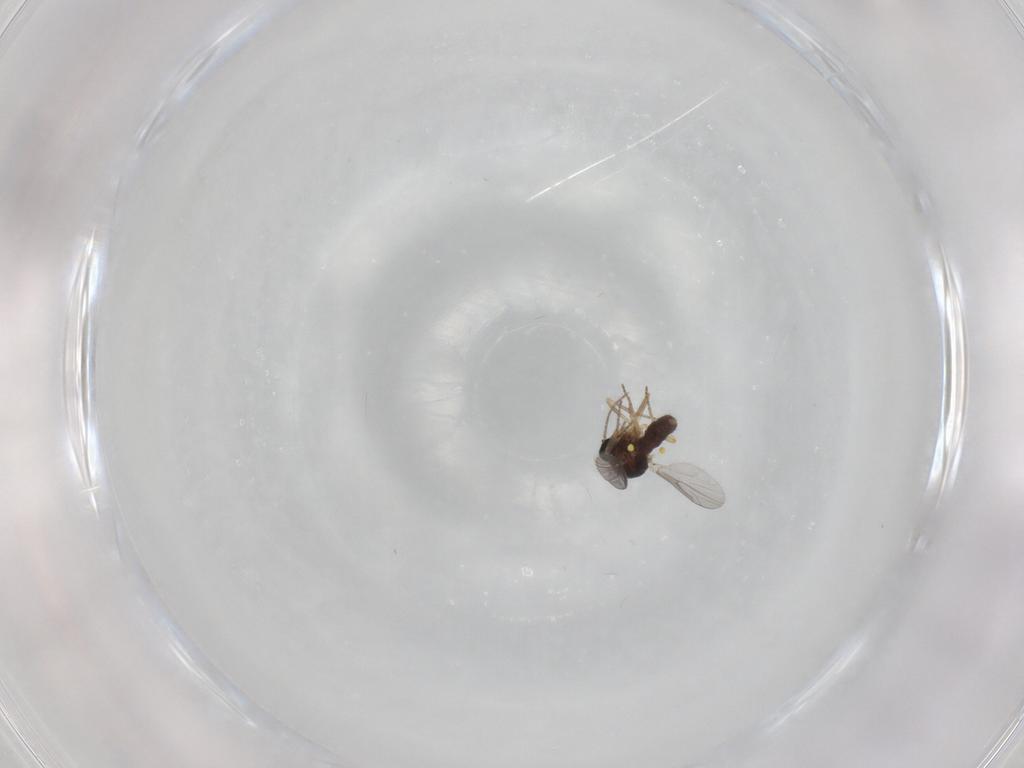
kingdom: Animalia
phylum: Arthropoda
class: Insecta
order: Diptera
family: Ceratopogonidae
